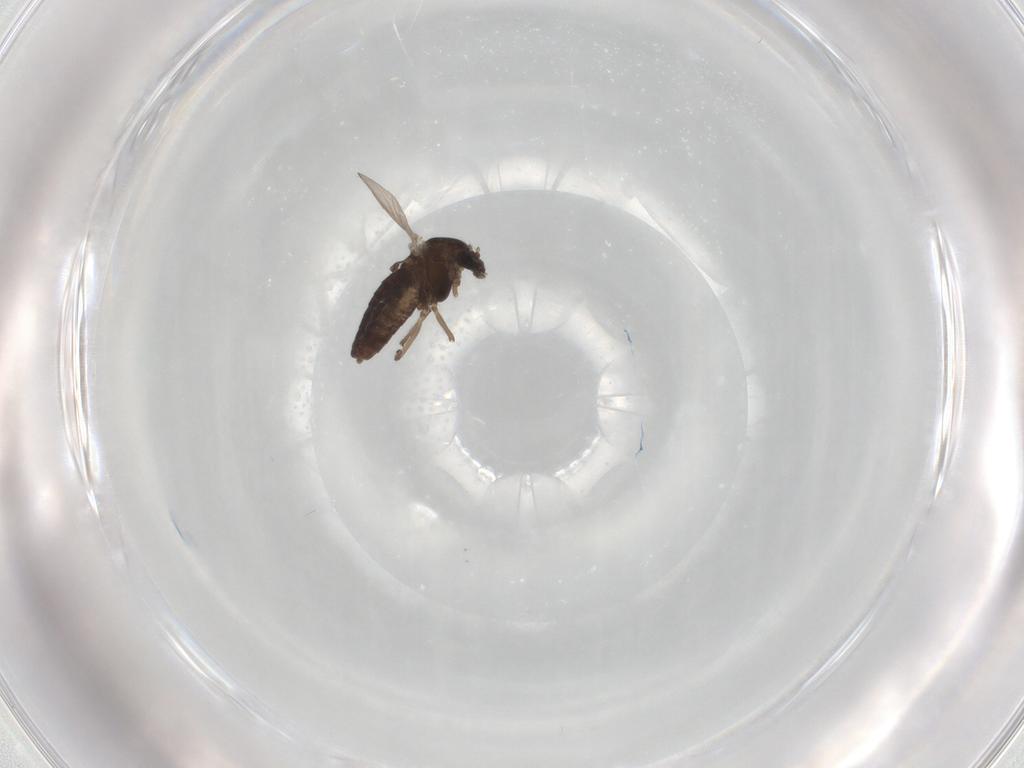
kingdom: Animalia
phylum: Arthropoda
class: Insecta
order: Diptera
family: Chironomidae
